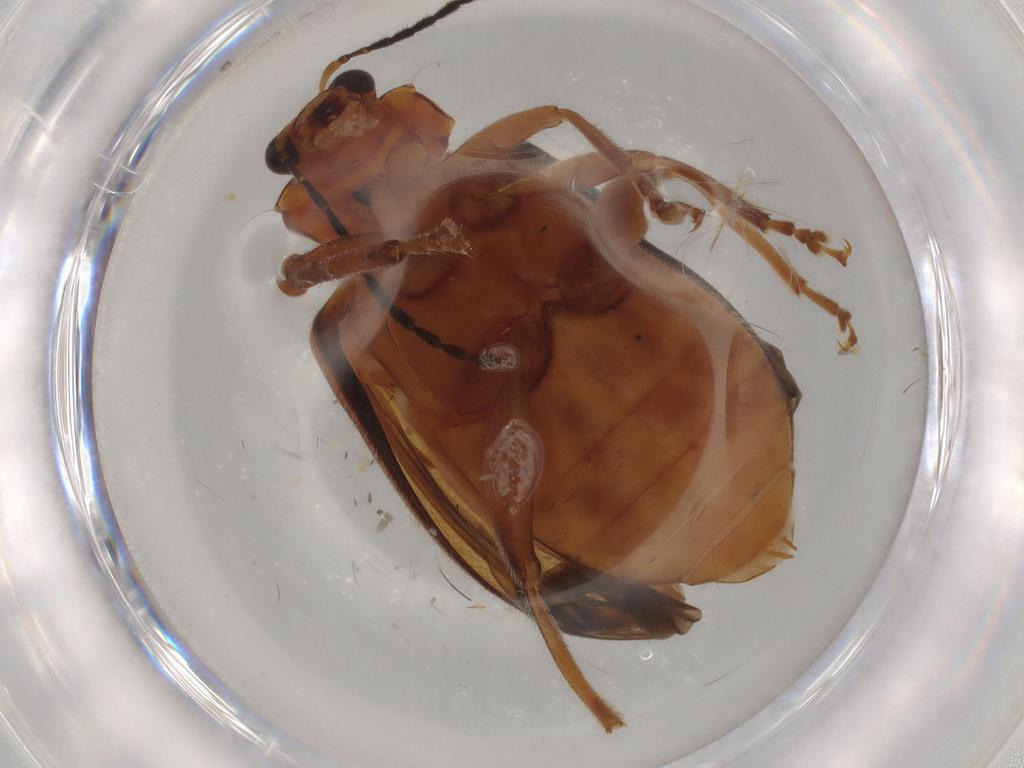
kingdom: Animalia
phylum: Arthropoda
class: Insecta
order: Coleoptera
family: Chrysomelidae
